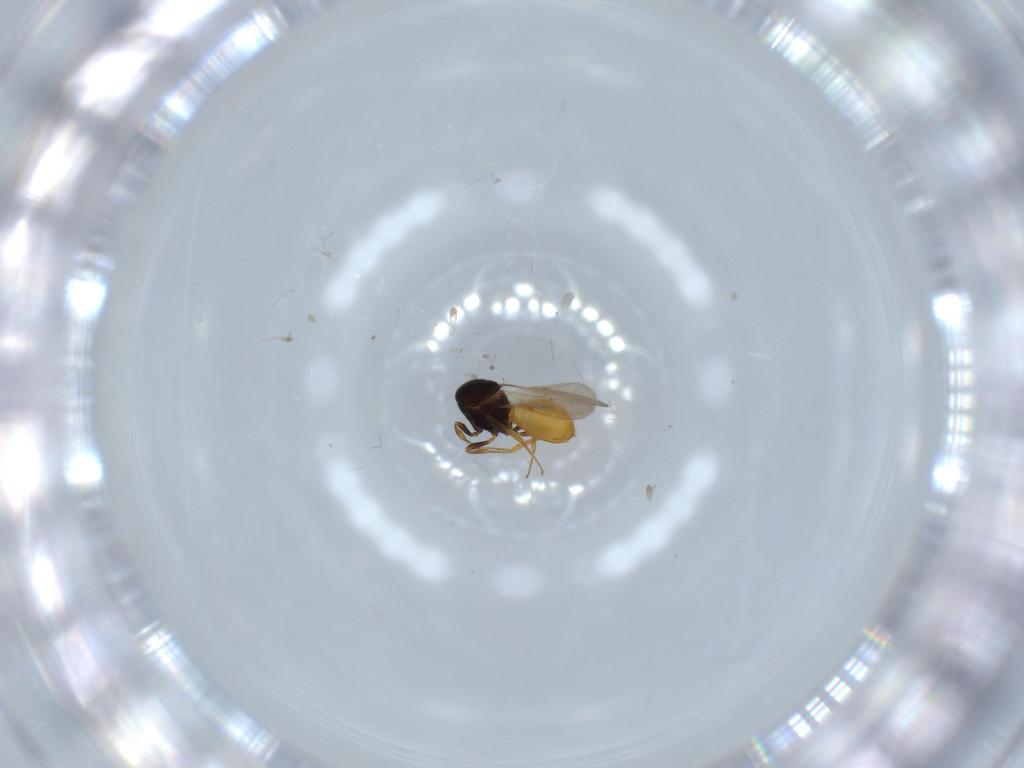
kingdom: Animalia
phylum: Arthropoda
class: Insecta
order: Hymenoptera
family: Scelionidae
